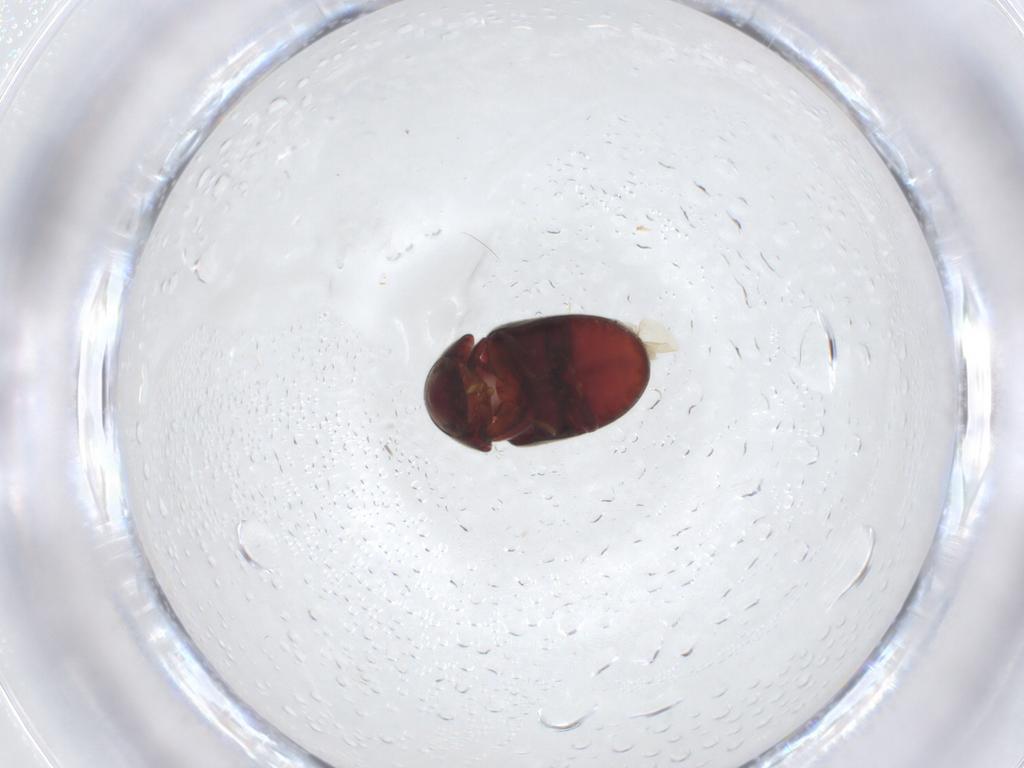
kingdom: Animalia
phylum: Arthropoda
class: Insecta
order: Coleoptera
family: Ptinidae
